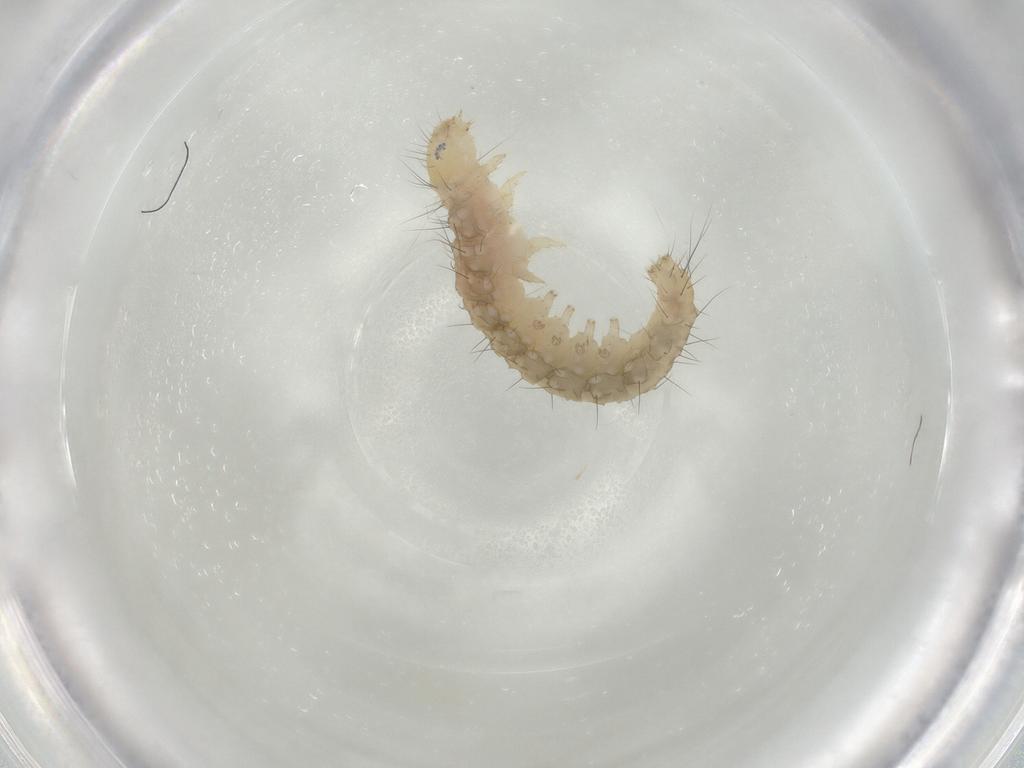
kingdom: Animalia
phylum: Arthropoda
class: Insecta
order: Lepidoptera
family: Gelechiidae
